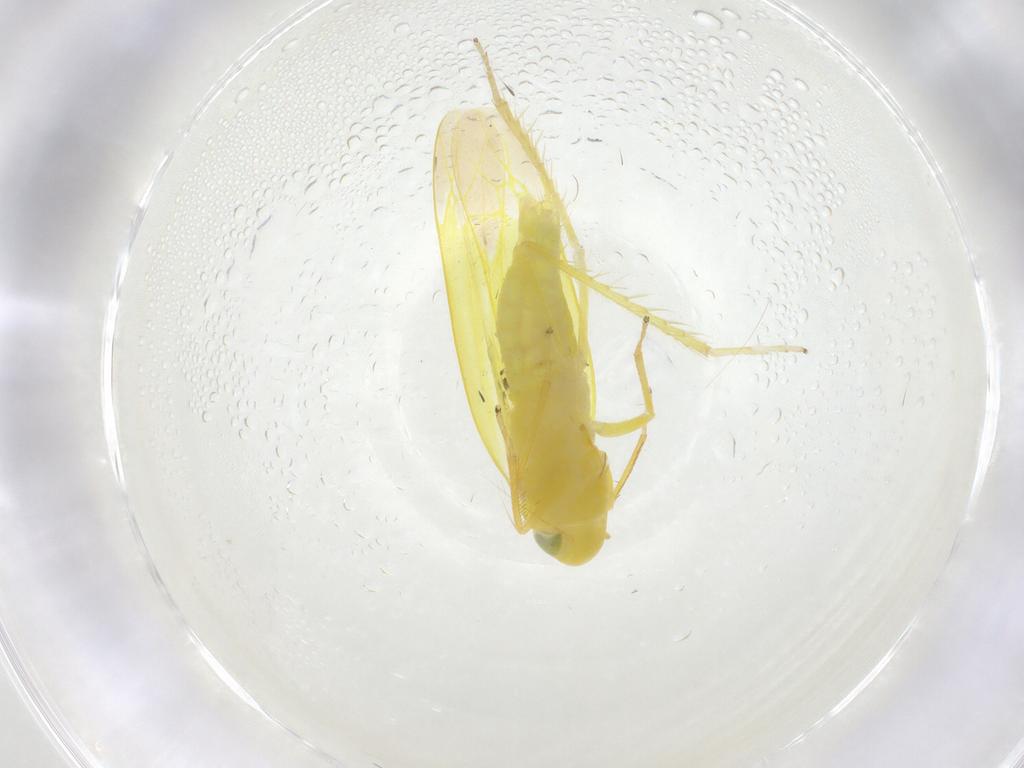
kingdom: Animalia
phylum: Arthropoda
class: Insecta
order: Hemiptera
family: Cicadellidae
